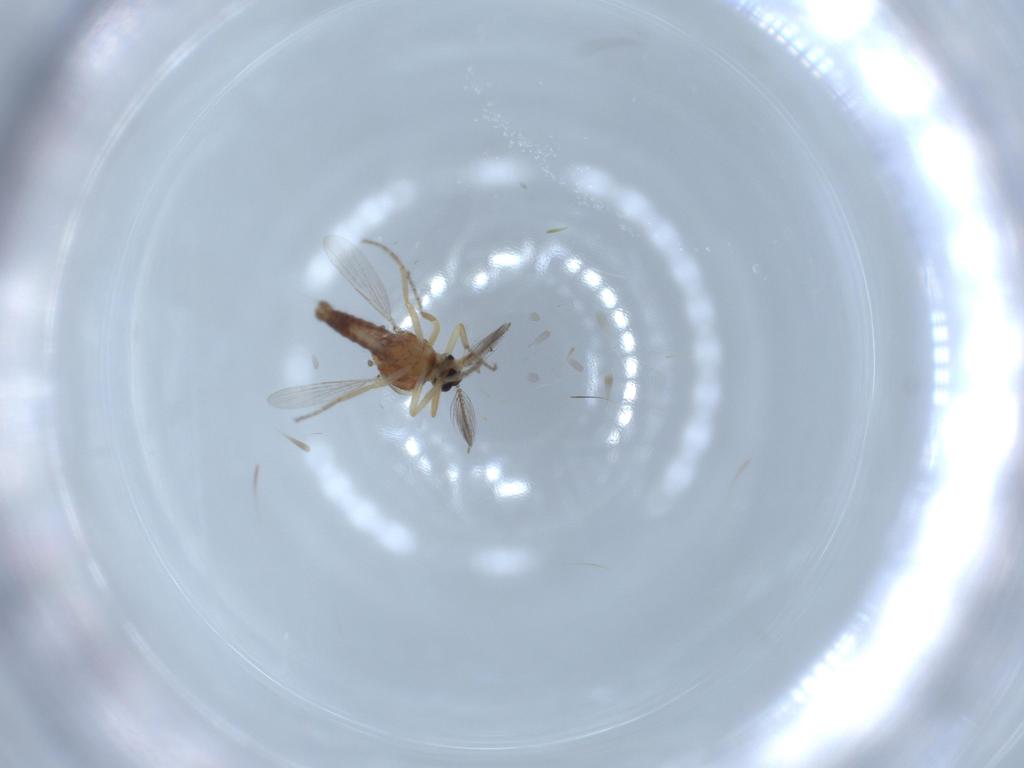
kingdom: Animalia
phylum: Arthropoda
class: Insecta
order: Diptera
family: Ceratopogonidae
